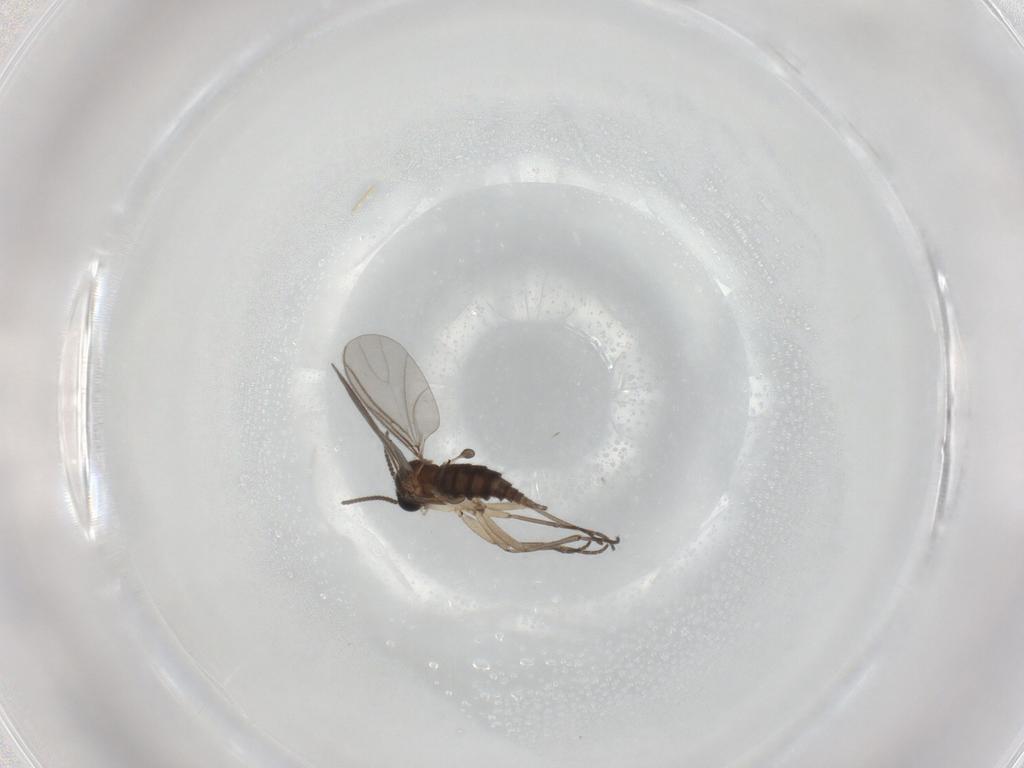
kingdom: Animalia
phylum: Arthropoda
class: Insecta
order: Diptera
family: Sciaridae
